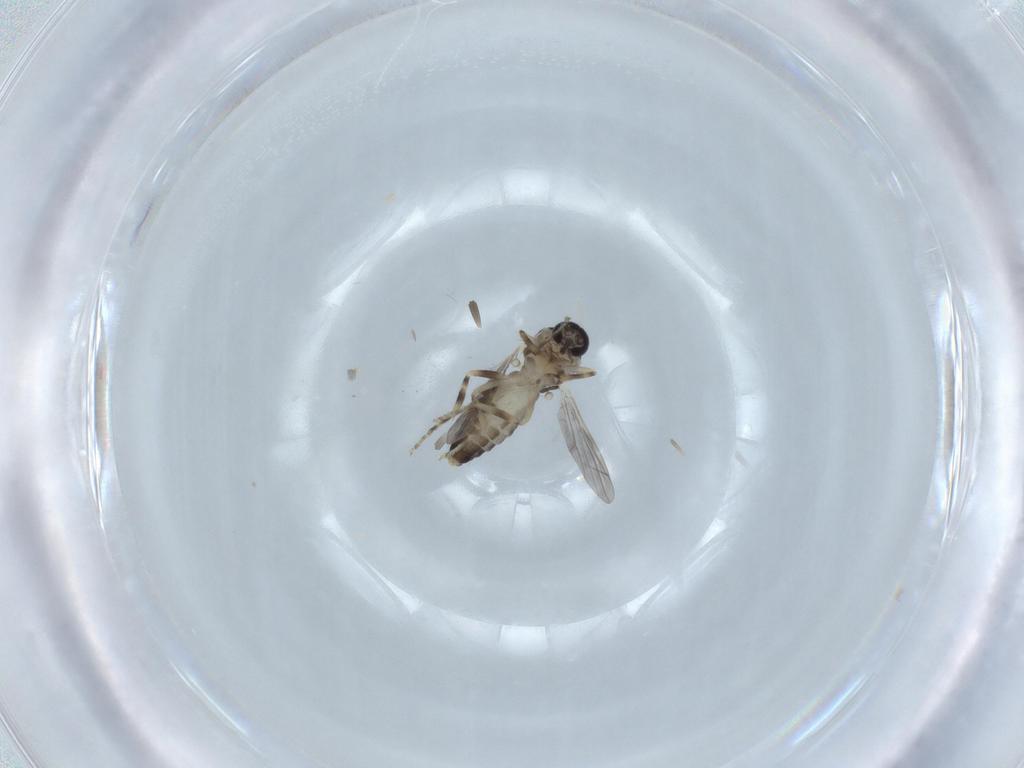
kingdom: Animalia
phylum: Arthropoda
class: Insecta
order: Diptera
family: Ceratopogonidae
